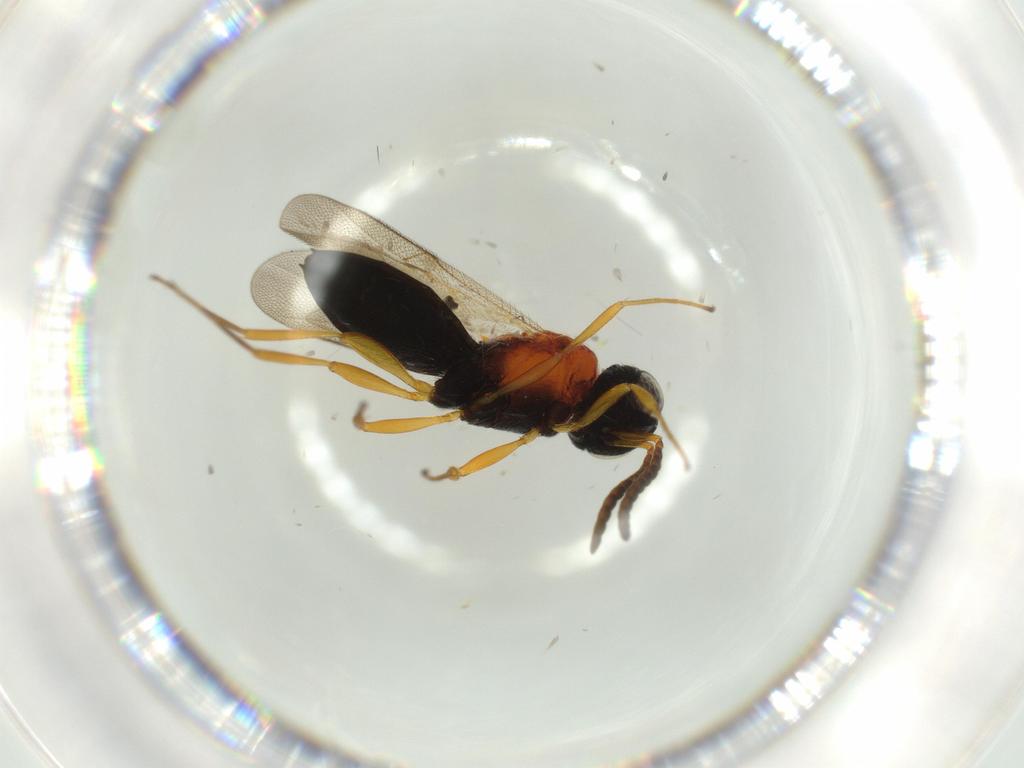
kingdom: Animalia
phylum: Arthropoda
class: Insecta
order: Hymenoptera
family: Scelionidae
